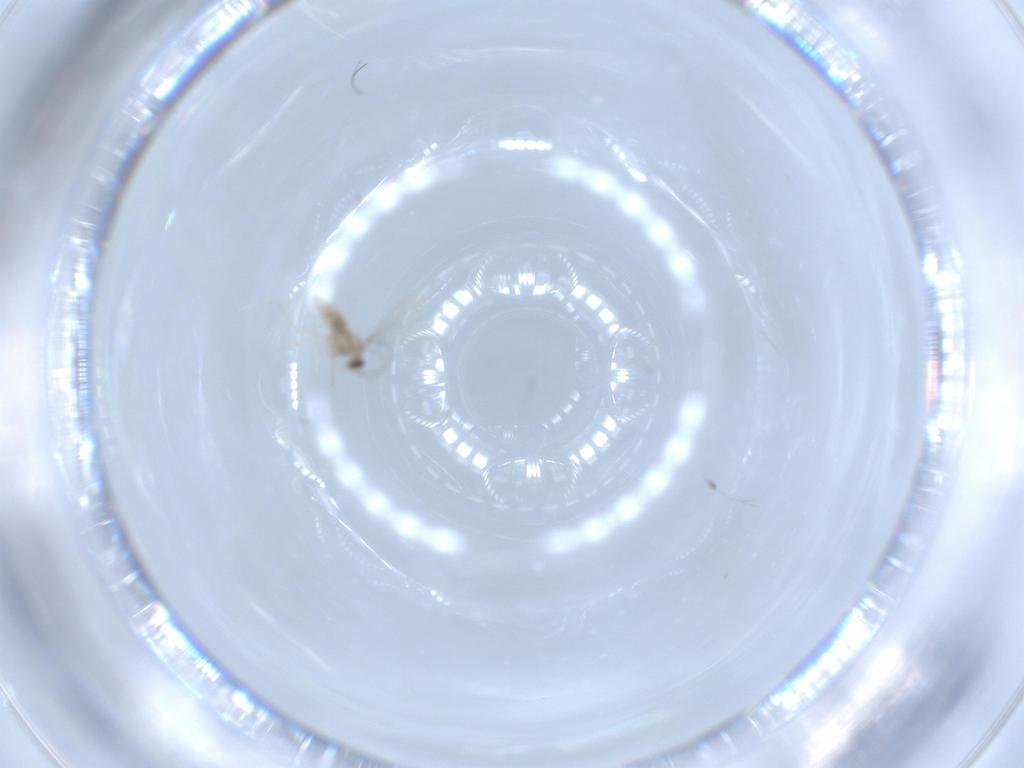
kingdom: Animalia
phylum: Arthropoda
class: Insecta
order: Diptera
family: Cecidomyiidae
